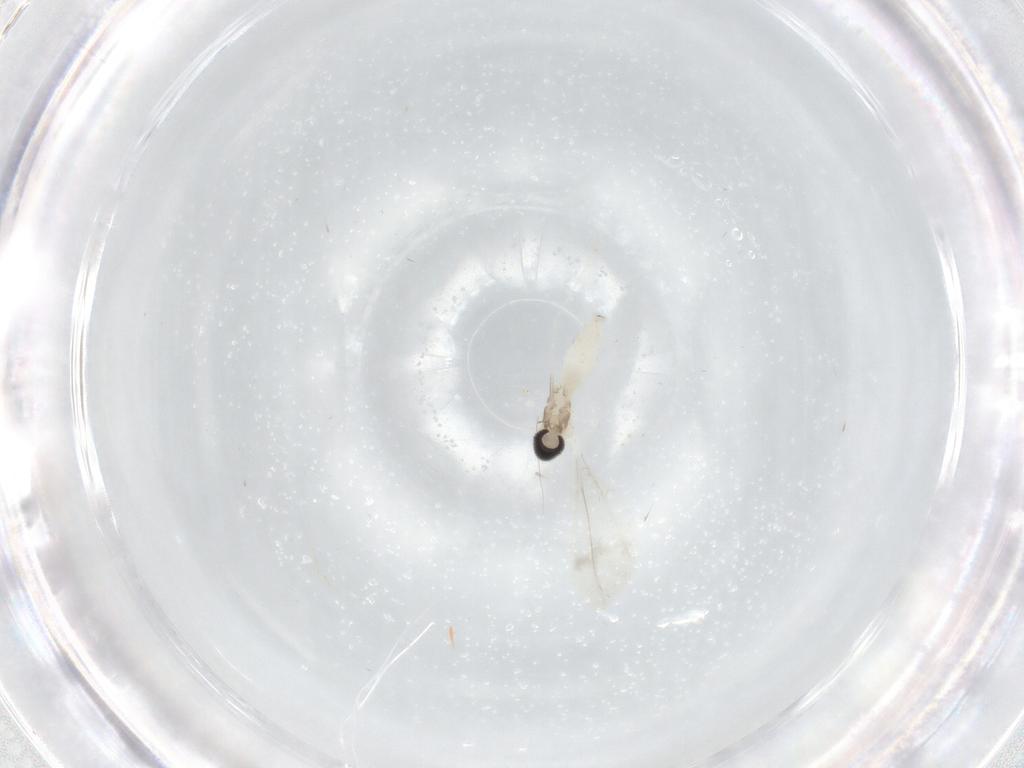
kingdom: Animalia
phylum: Arthropoda
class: Insecta
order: Diptera
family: Cecidomyiidae
